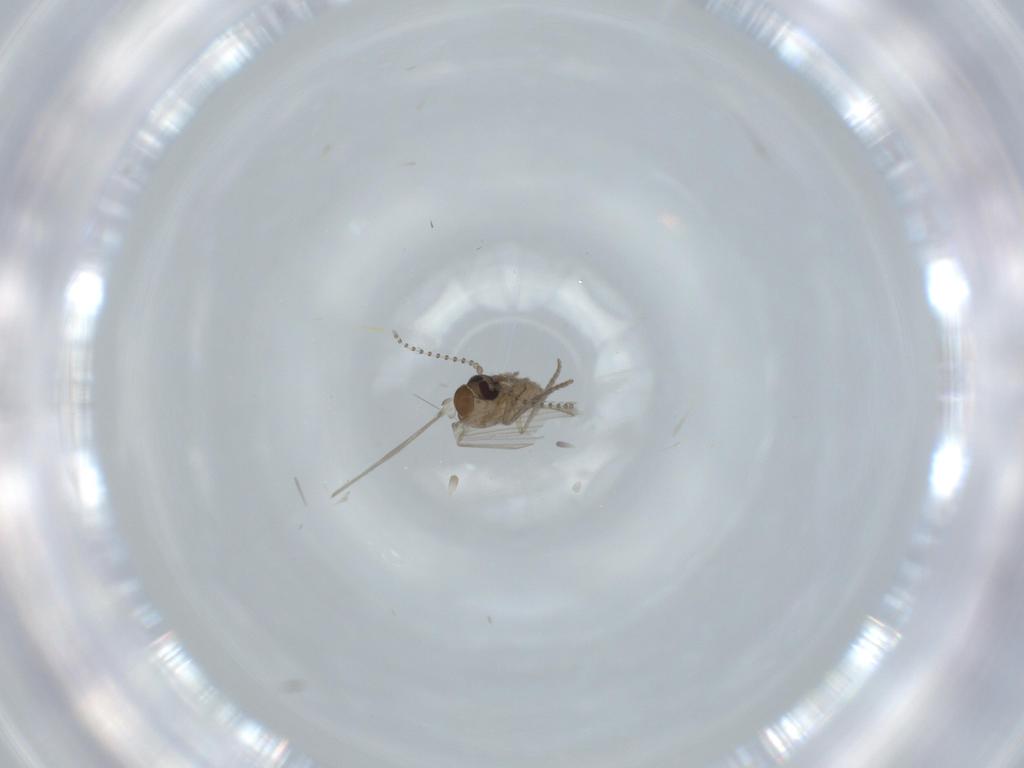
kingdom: Animalia
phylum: Arthropoda
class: Insecta
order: Diptera
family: Psychodidae
